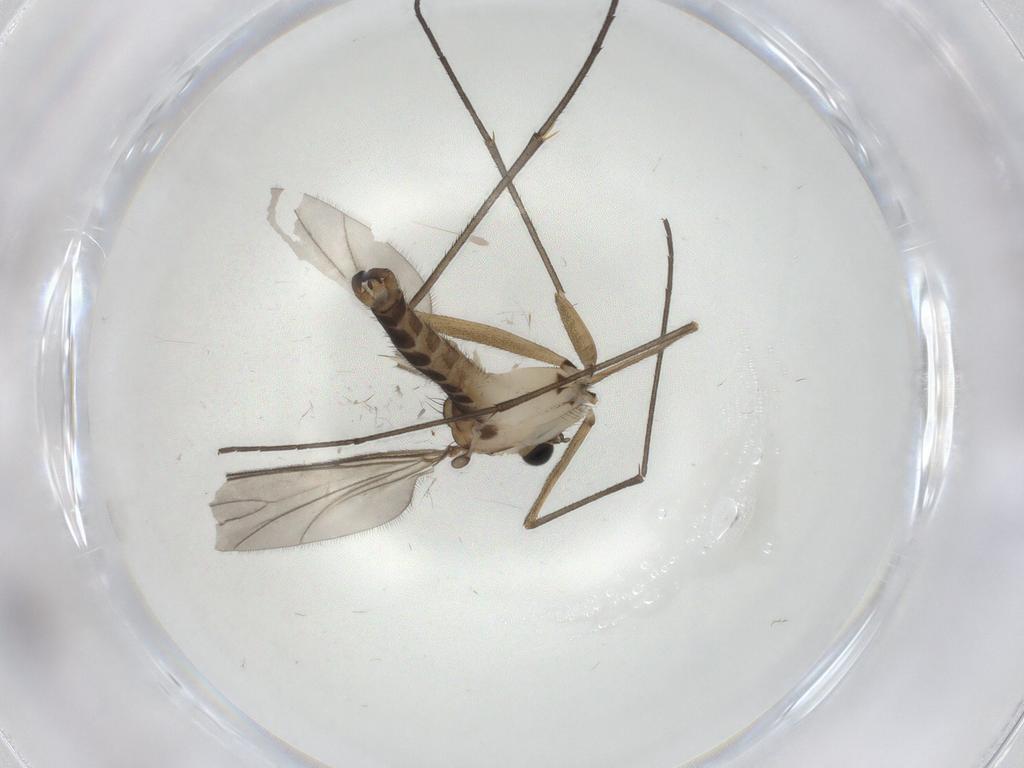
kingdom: Animalia
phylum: Arthropoda
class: Insecta
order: Diptera
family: Sciaridae
